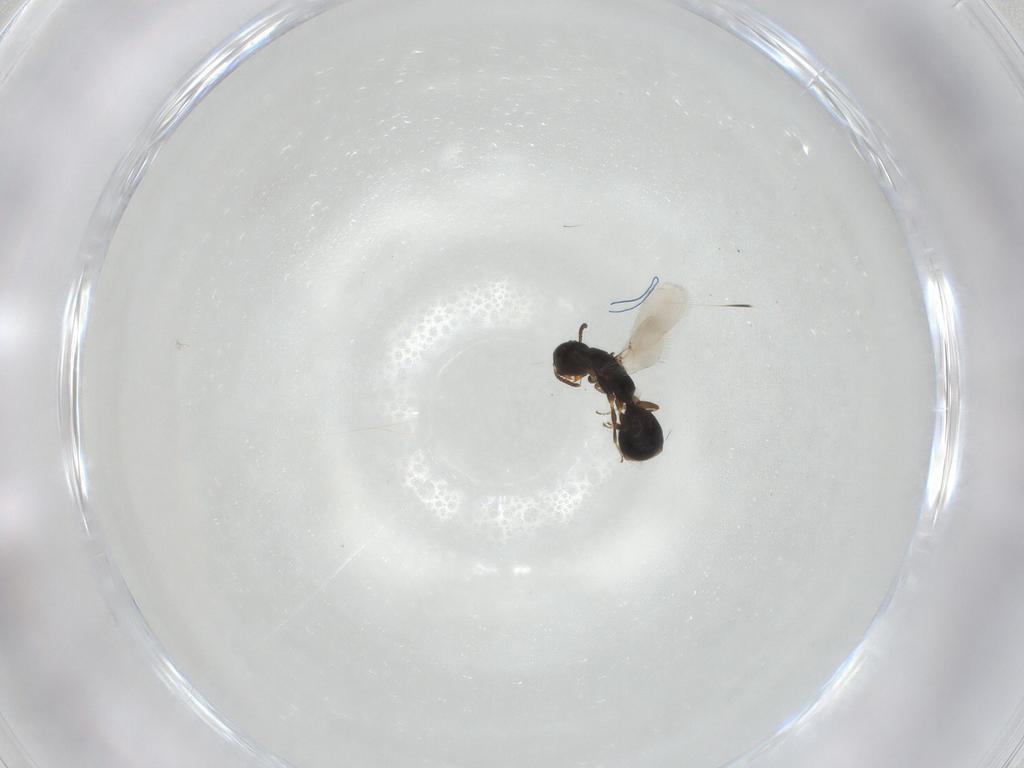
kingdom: Animalia
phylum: Arthropoda
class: Insecta
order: Hymenoptera
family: Bethylidae
